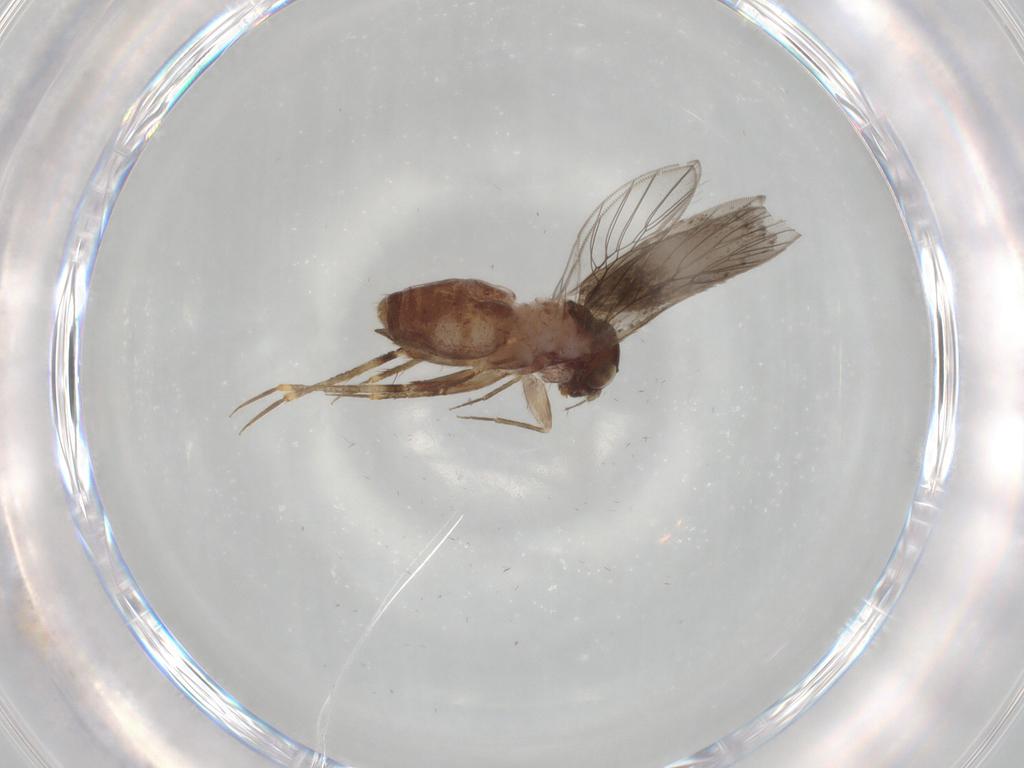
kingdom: Animalia
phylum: Arthropoda
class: Insecta
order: Psocodea
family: Lepidopsocidae
